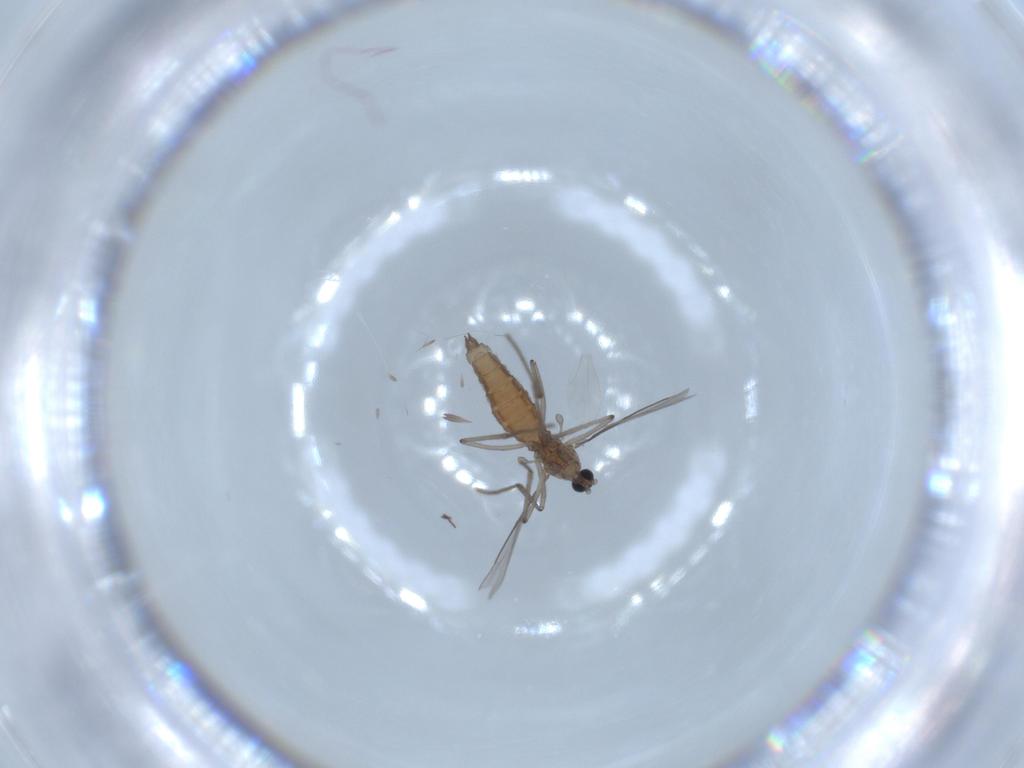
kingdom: Animalia
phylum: Arthropoda
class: Insecta
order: Diptera
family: Cecidomyiidae
